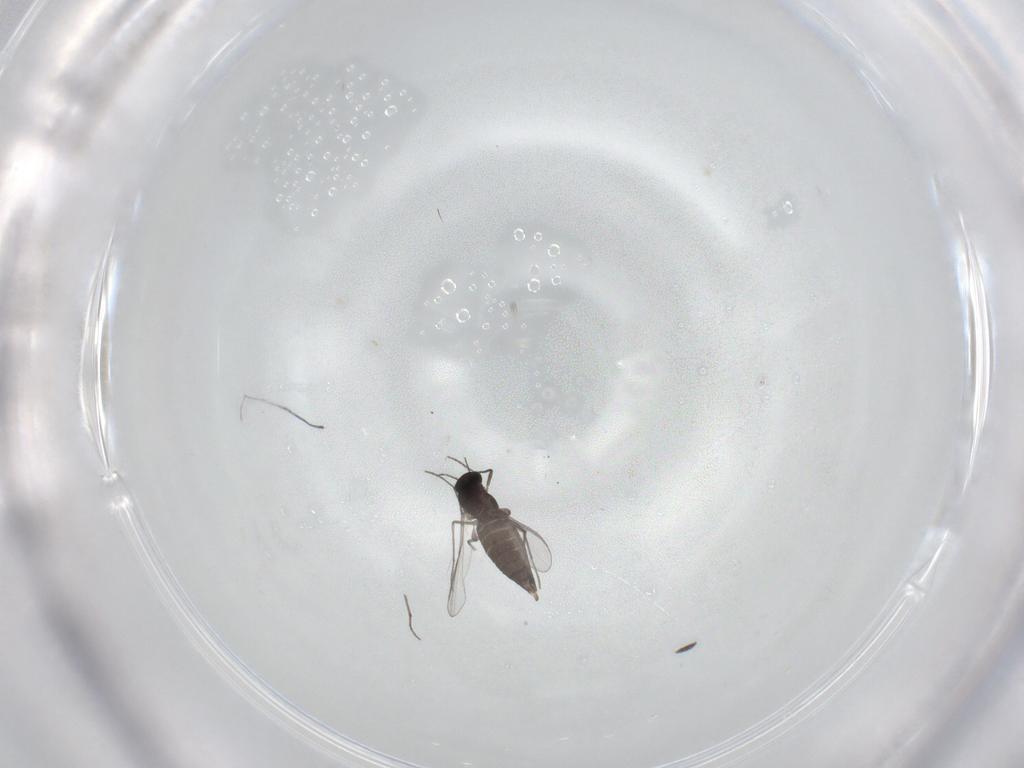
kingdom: Animalia
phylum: Arthropoda
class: Insecta
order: Diptera
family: Chironomidae
